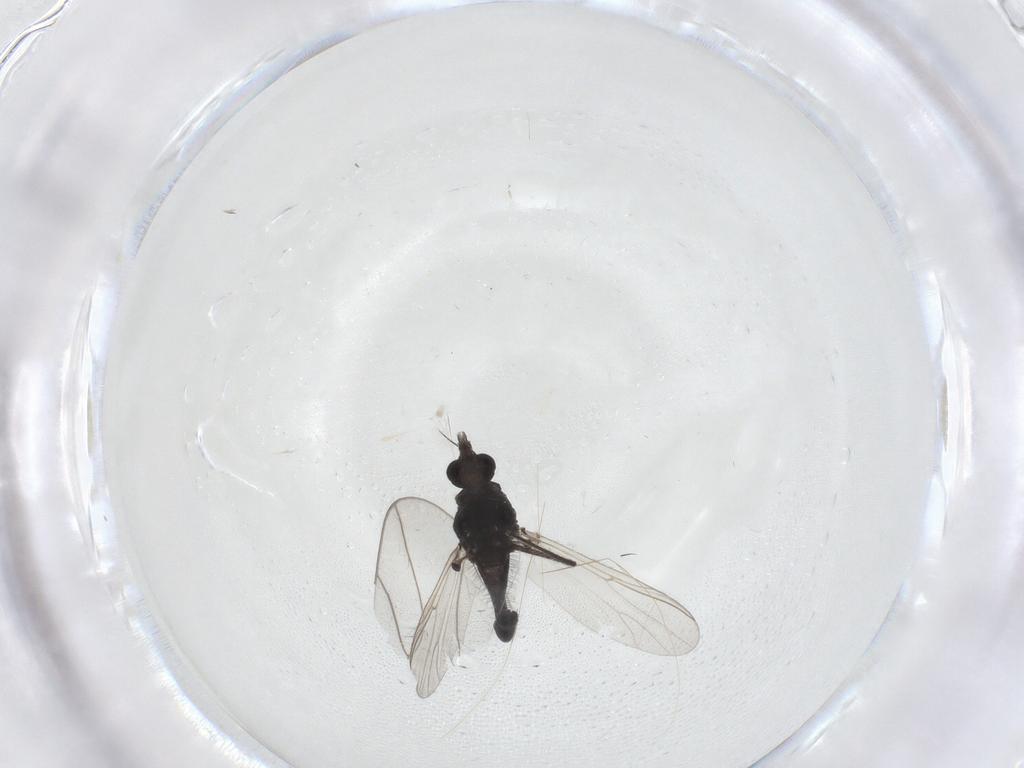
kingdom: Animalia
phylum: Arthropoda
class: Insecta
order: Diptera
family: Chironomidae
